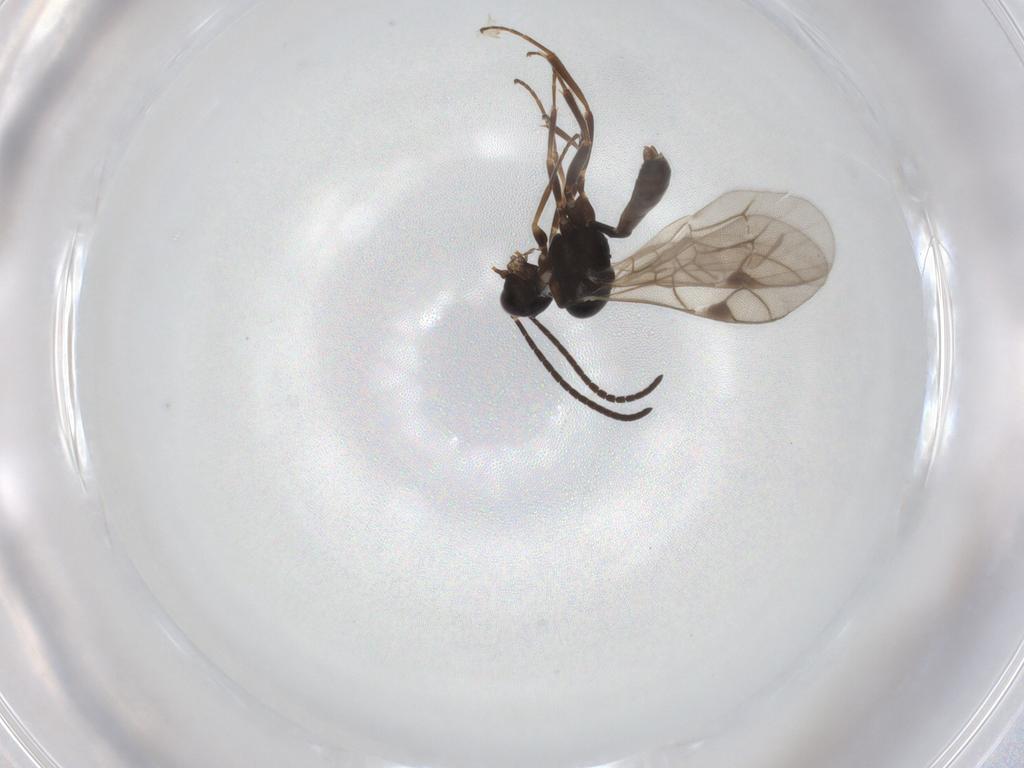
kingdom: Animalia
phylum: Arthropoda
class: Insecta
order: Hymenoptera
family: Ichneumonidae
